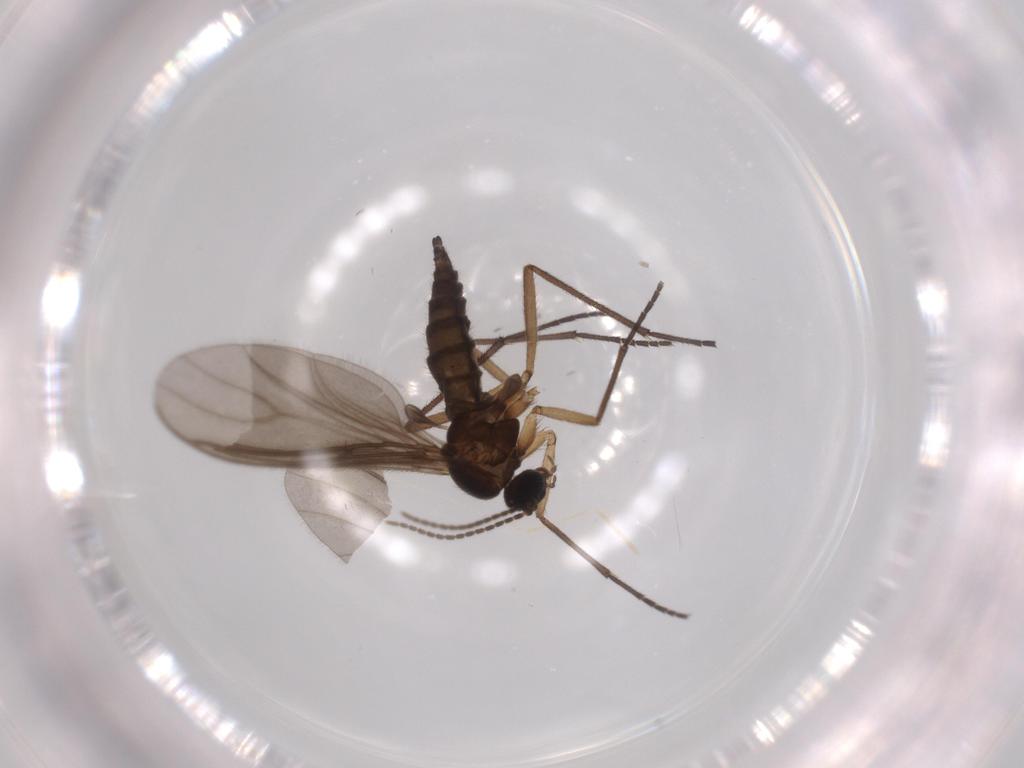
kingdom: Animalia
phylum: Arthropoda
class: Insecta
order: Diptera
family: Sciaridae
